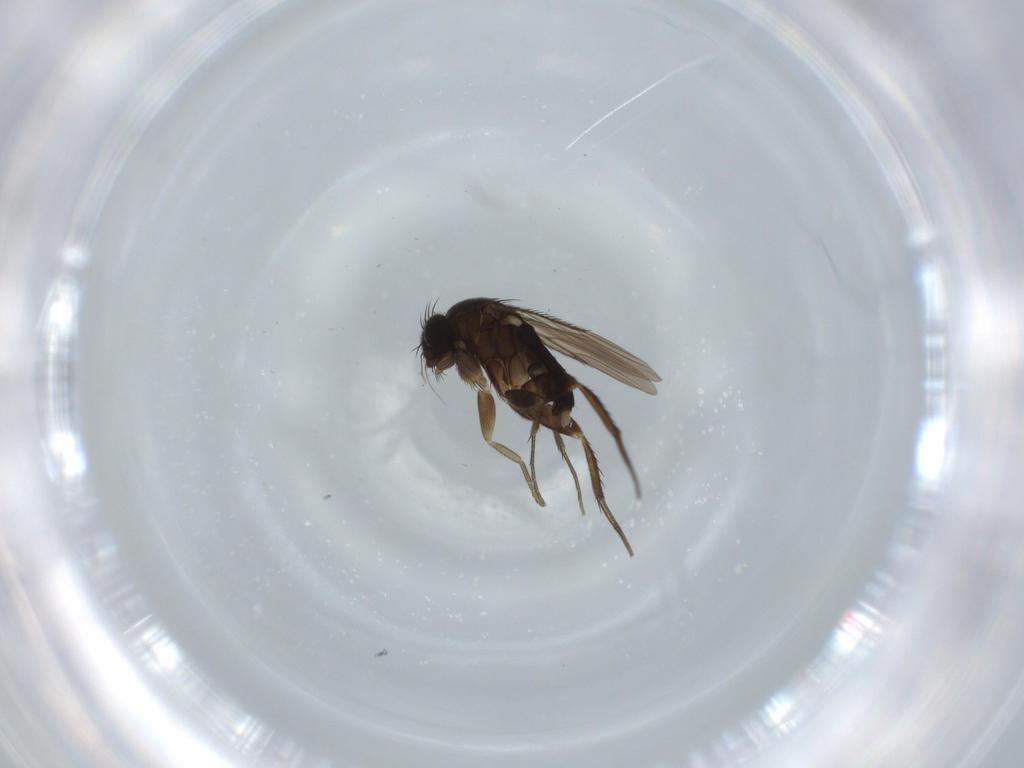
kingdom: Animalia
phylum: Arthropoda
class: Insecta
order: Diptera
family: Phoridae
